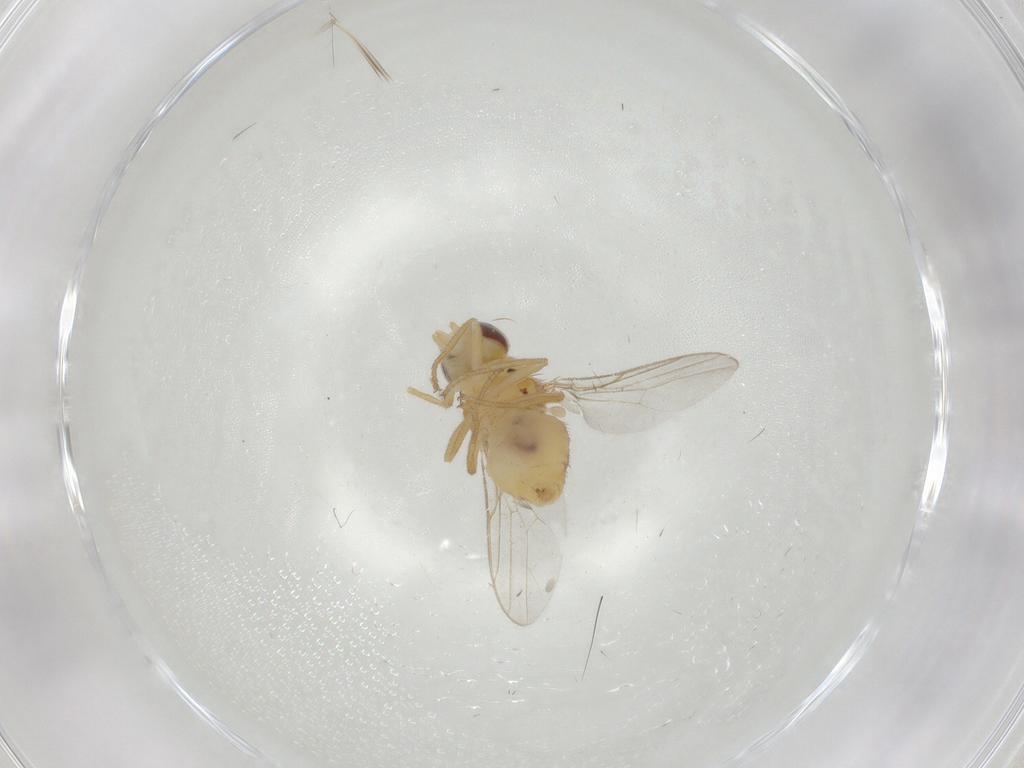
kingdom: Animalia
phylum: Arthropoda
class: Insecta
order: Diptera
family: Chloropidae
